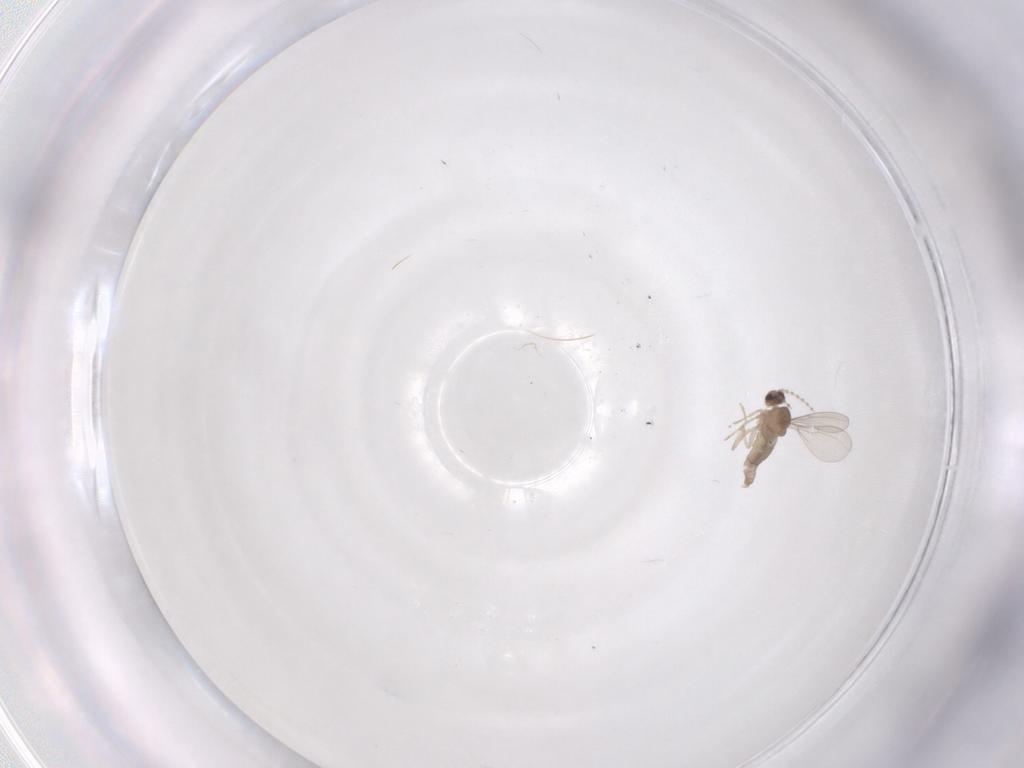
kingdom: Animalia
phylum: Arthropoda
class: Insecta
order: Diptera
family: Cecidomyiidae
